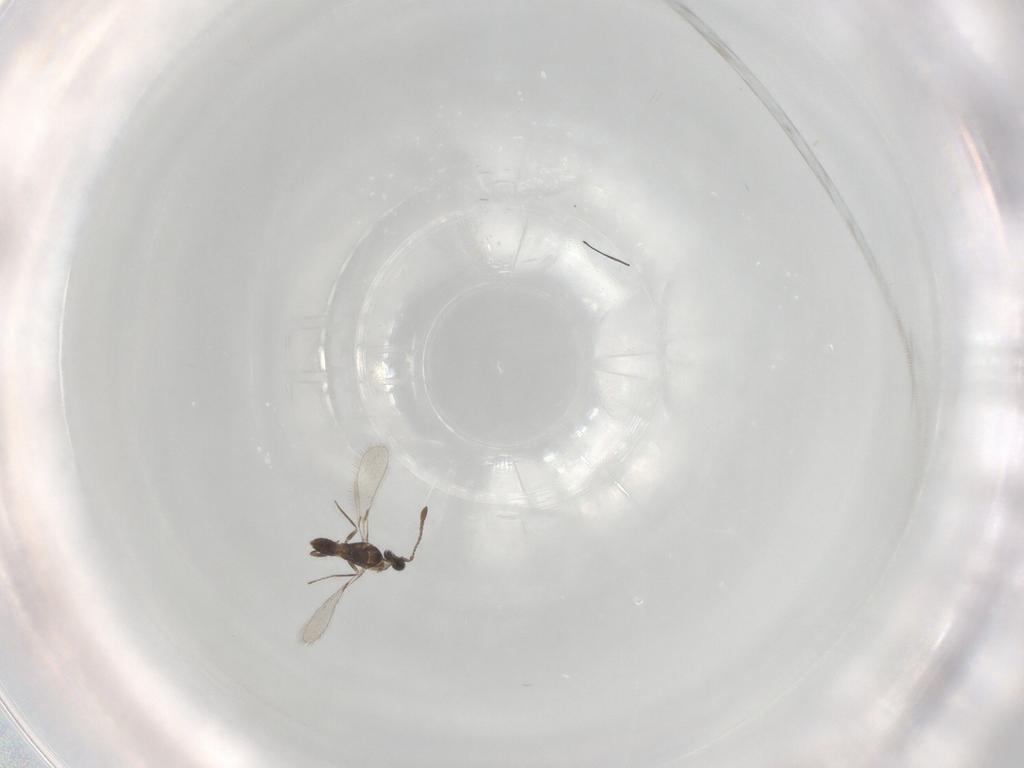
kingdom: Animalia
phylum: Arthropoda
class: Insecta
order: Hymenoptera
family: Mymaridae
